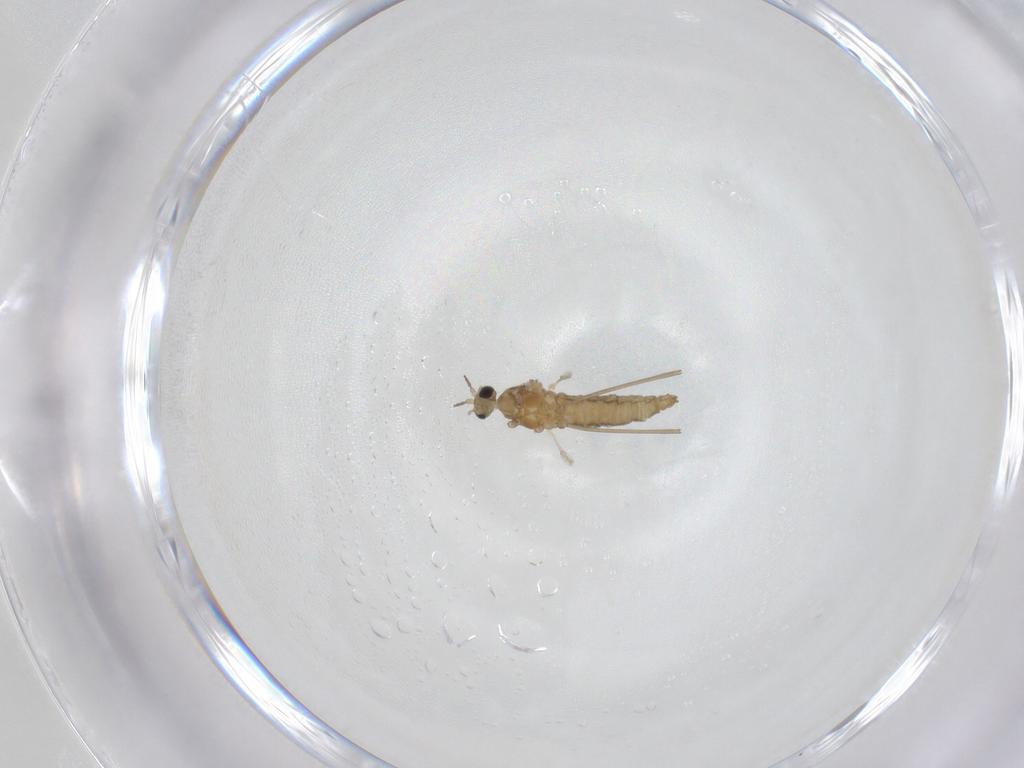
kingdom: Animalia
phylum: Arthropoda
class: Insecta
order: Diptera
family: Cecidomyiidae
